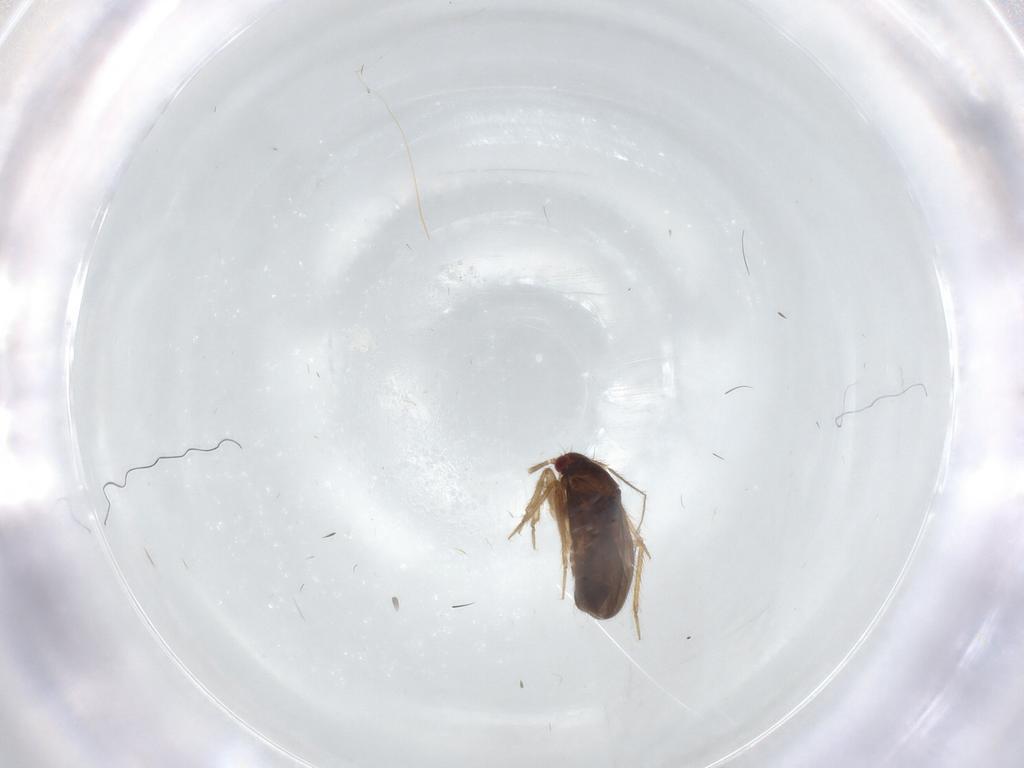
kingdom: Animalia
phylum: Arthropoda
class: Insecta
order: Hemiptera
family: Ceratocombidae
